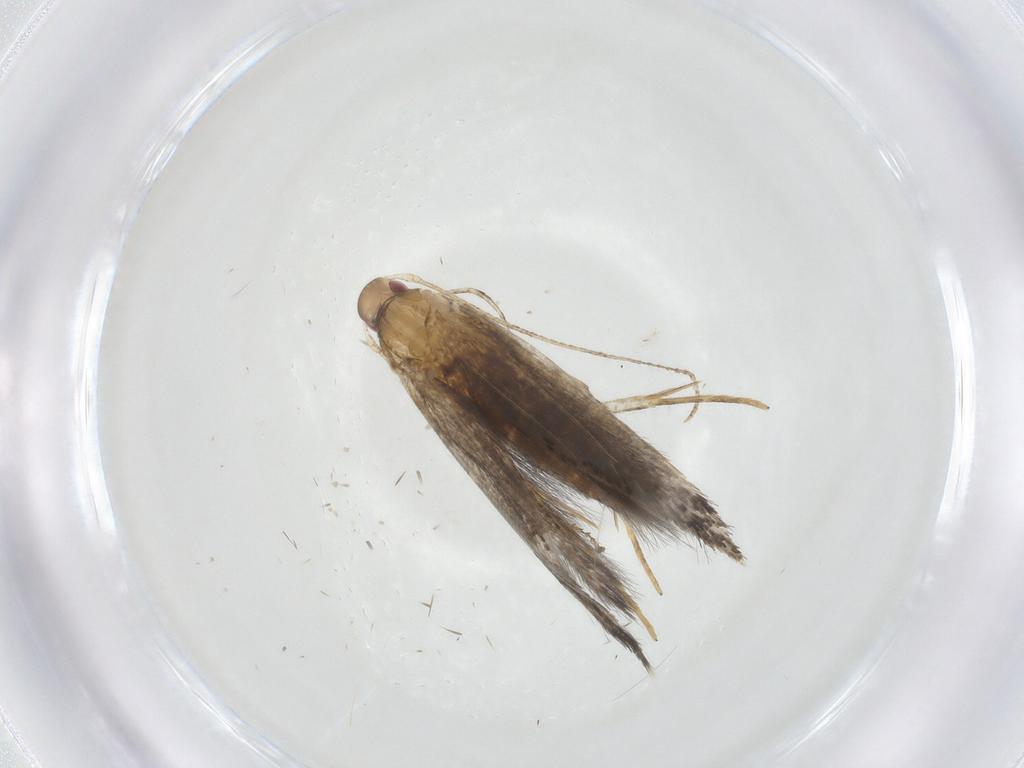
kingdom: Animalia
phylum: Arthropoda
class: Insecta
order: Lepidoptera
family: Cosmopterigidae
